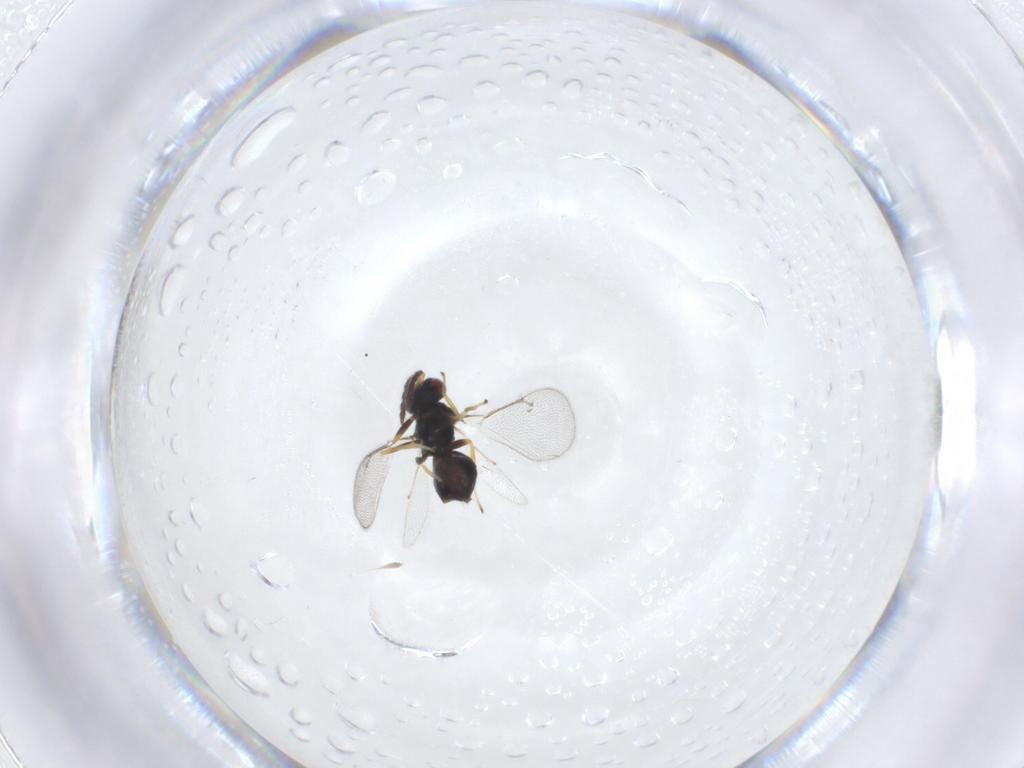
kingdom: Animalia
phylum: Arthropoda
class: Insecta
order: Hymenoptera
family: Eulophidae
